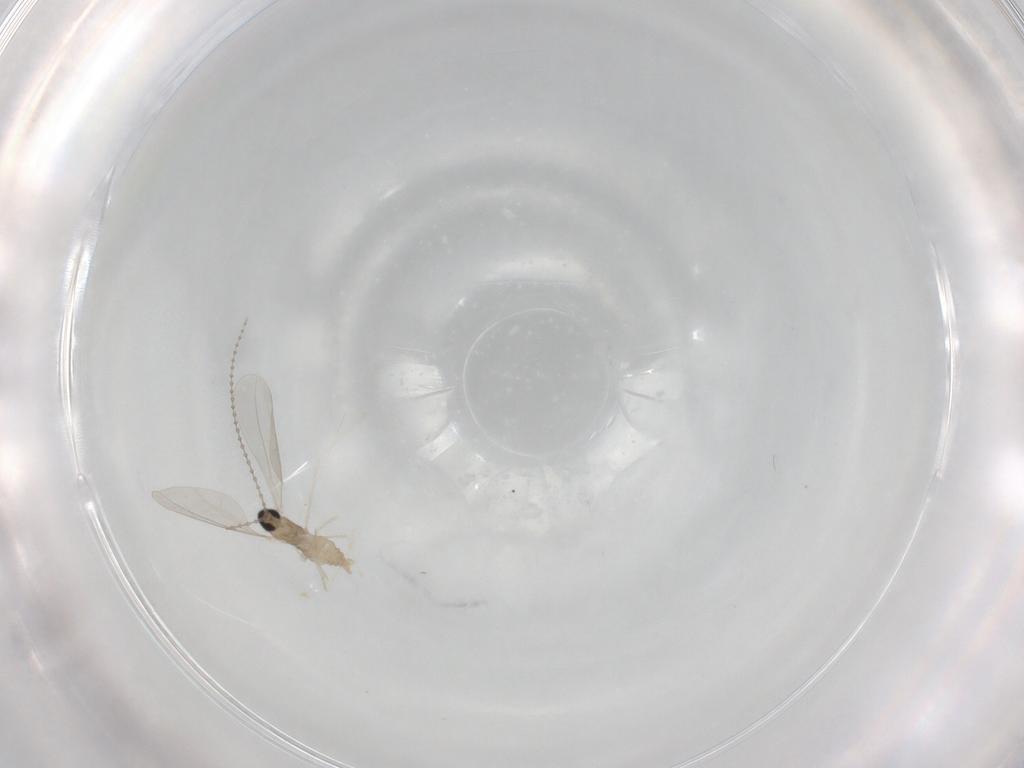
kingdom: Animalia
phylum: Arthropoda
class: Insecta
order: Diptera
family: Cecidomyiidae
